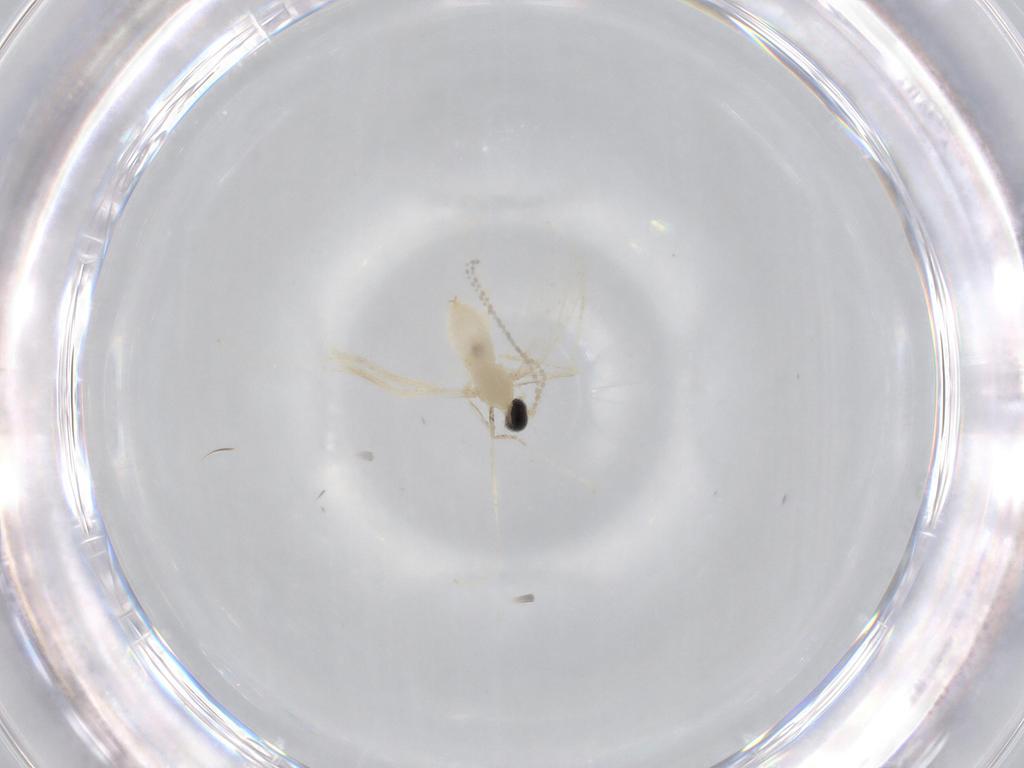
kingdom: Animalia
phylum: Arthropoda
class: Insecta
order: Diptera
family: Cecidomyiidae
